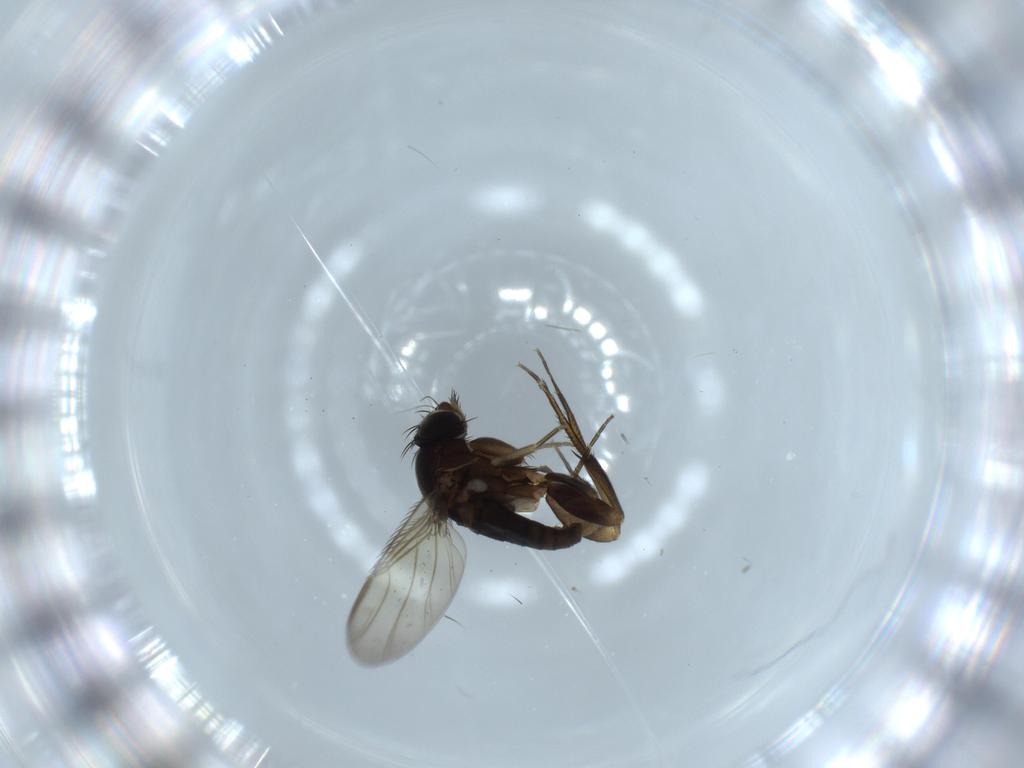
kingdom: Animalia
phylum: Arthropoda
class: Insecta
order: Diptera
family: Phoridae
